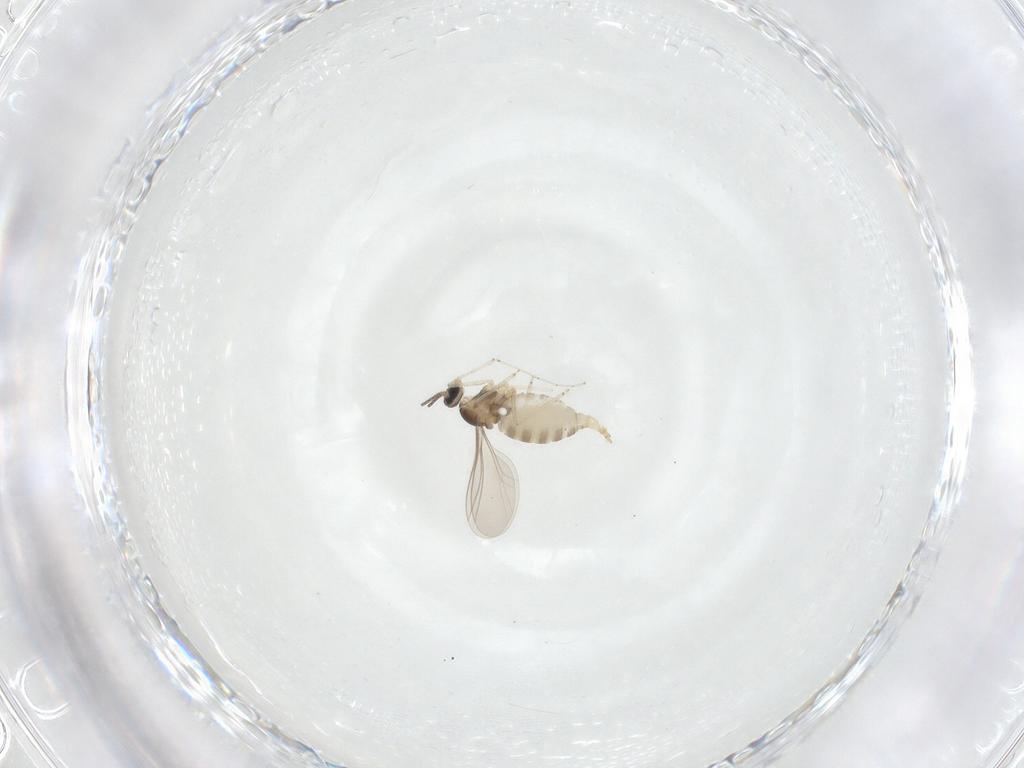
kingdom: Animalia
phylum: Arthropoda
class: Insecta
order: Diptera
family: Cecidomyiidae
